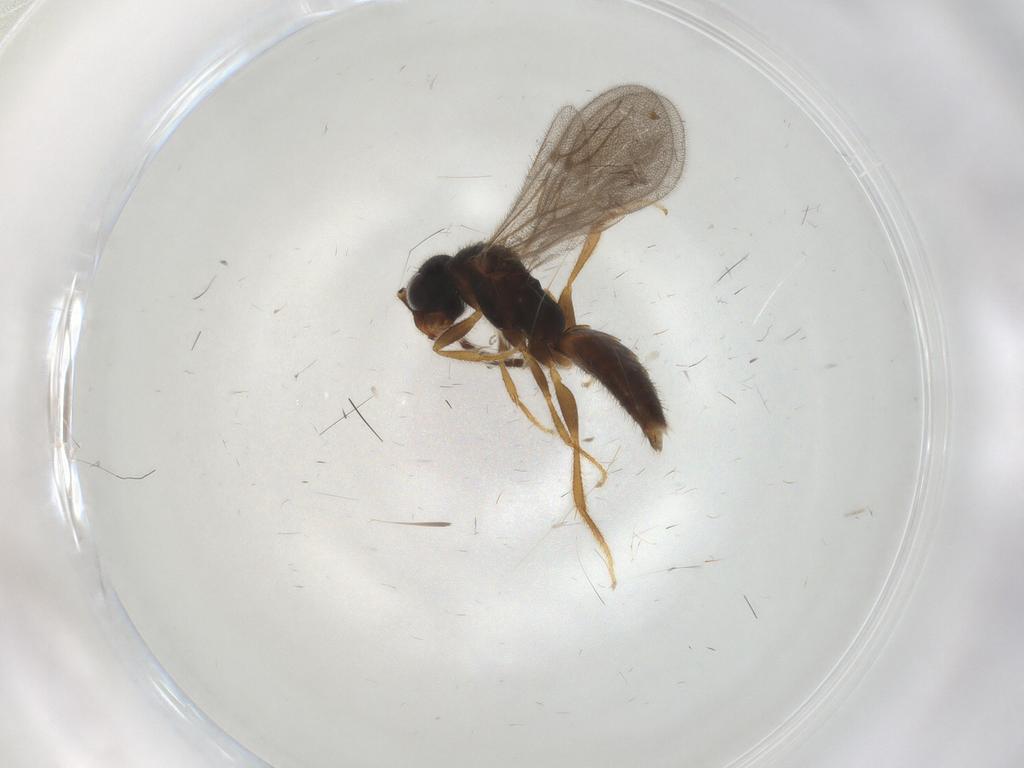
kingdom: Animalia
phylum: Arthropoda
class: Insecta
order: Hymenoptera
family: Bethylidae
